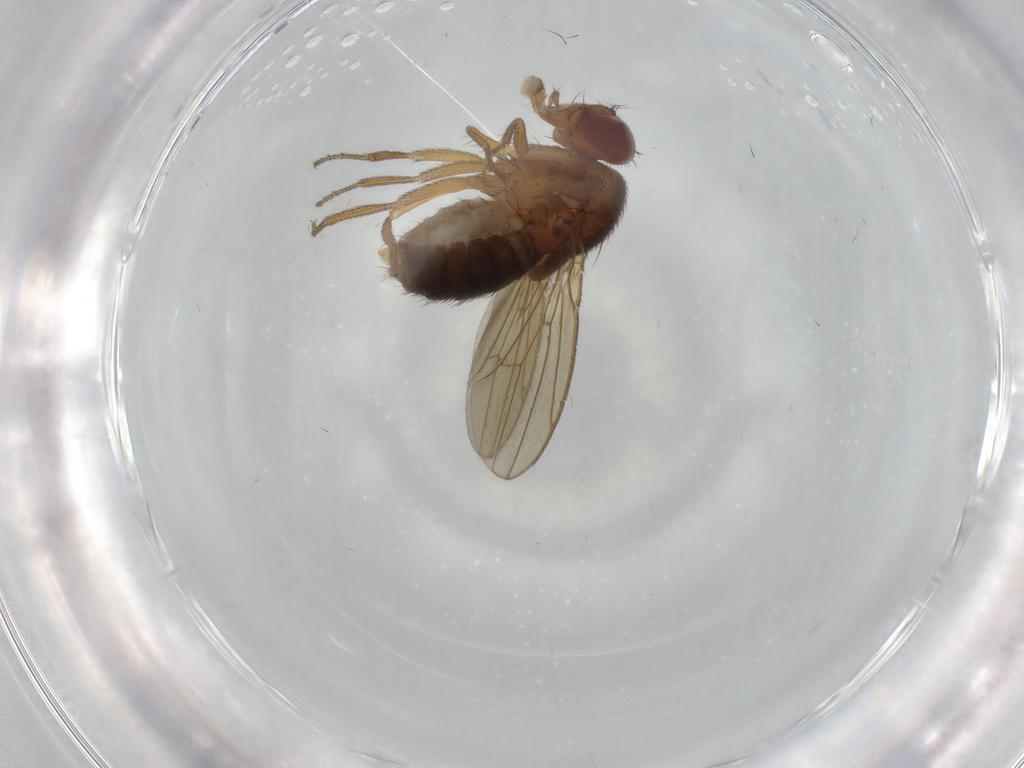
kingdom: Animalia
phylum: Arthropoda
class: Insecta
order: Diptera
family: Drosophilidae
